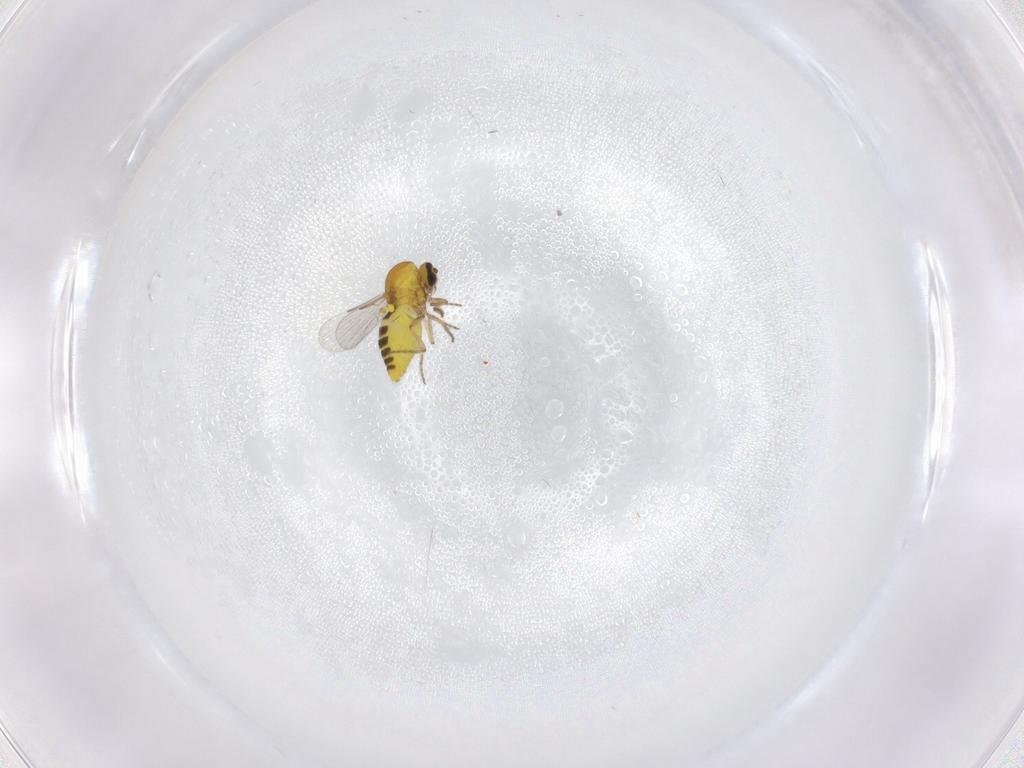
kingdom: Animalia
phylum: Arthropoda
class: Insecta
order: Diptera
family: Ceratopogonidae
